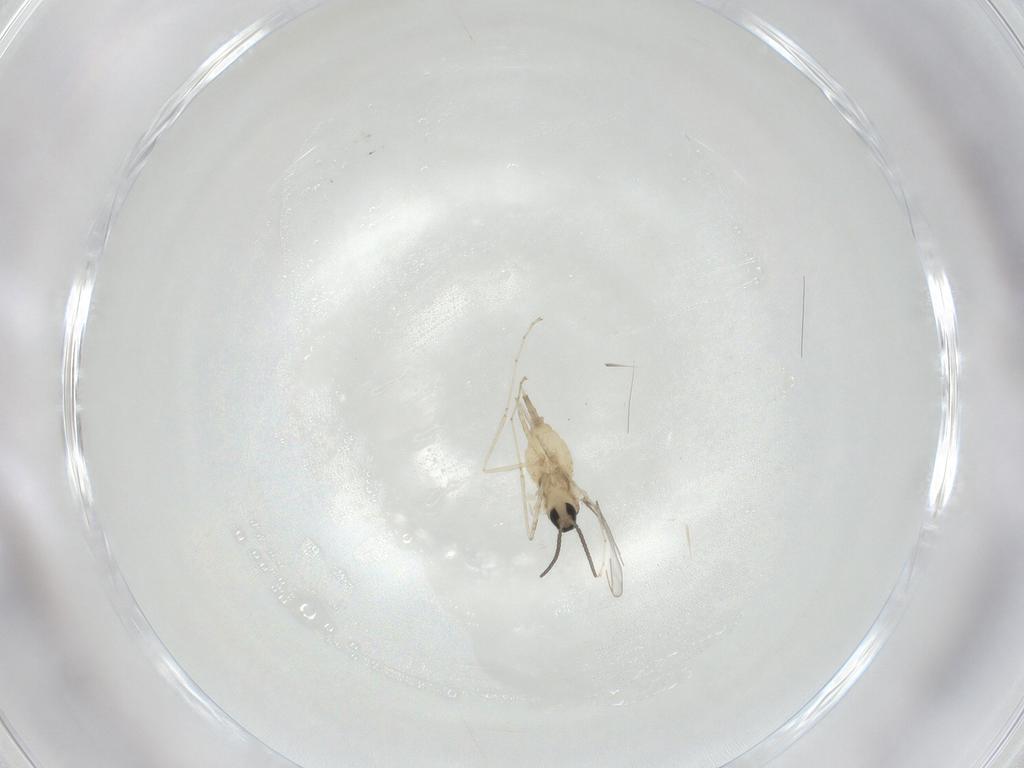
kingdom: Animalia
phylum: Arthropoda
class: Insecta
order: Diptera
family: Cecidomyiidae
